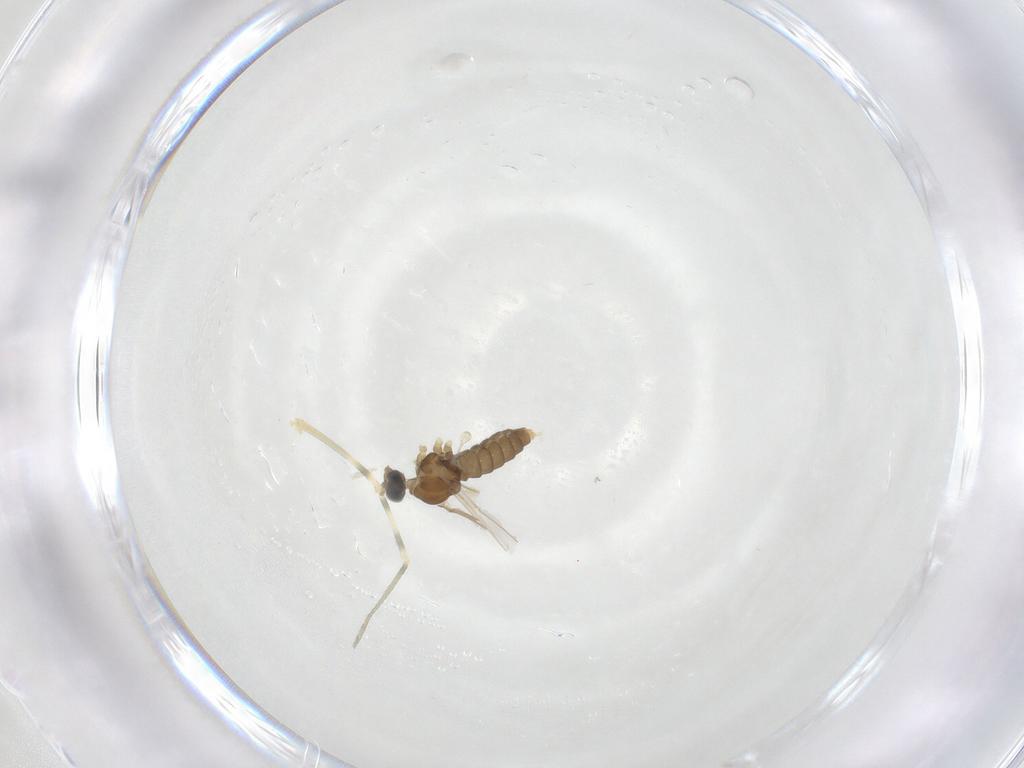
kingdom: Animalia
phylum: Arthropoda
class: Insecta
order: Diptera
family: Cecidomyiidae
